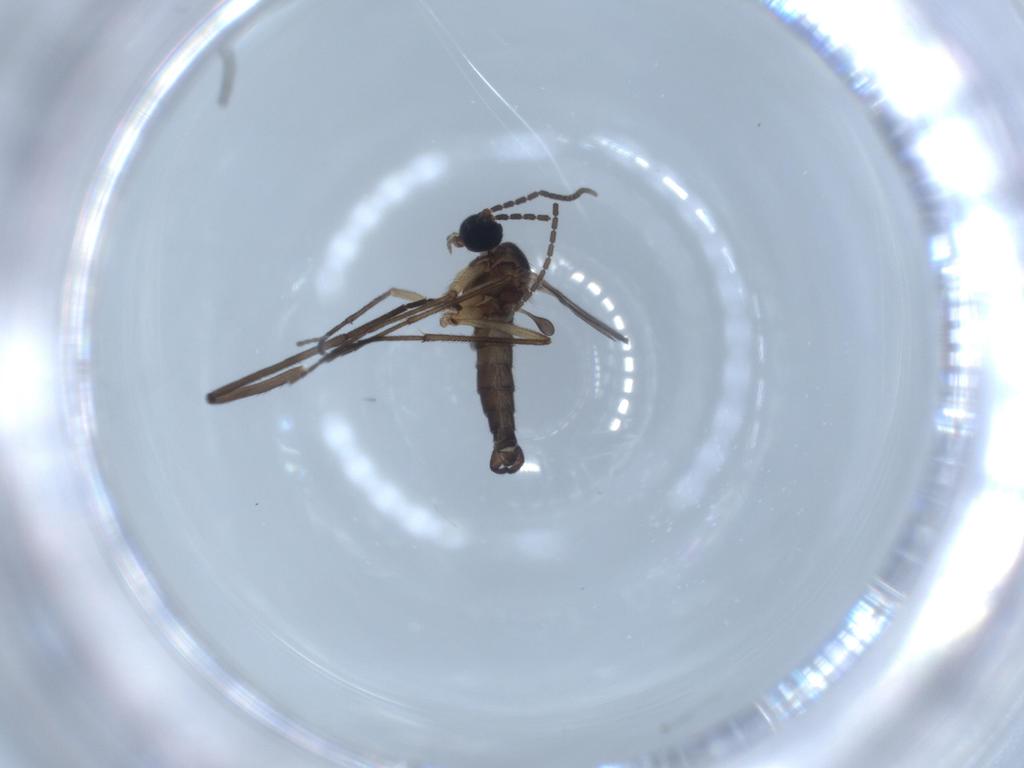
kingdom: Animalia
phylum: Arthropoda
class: Insecta
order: Diptera
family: Sciaridae
